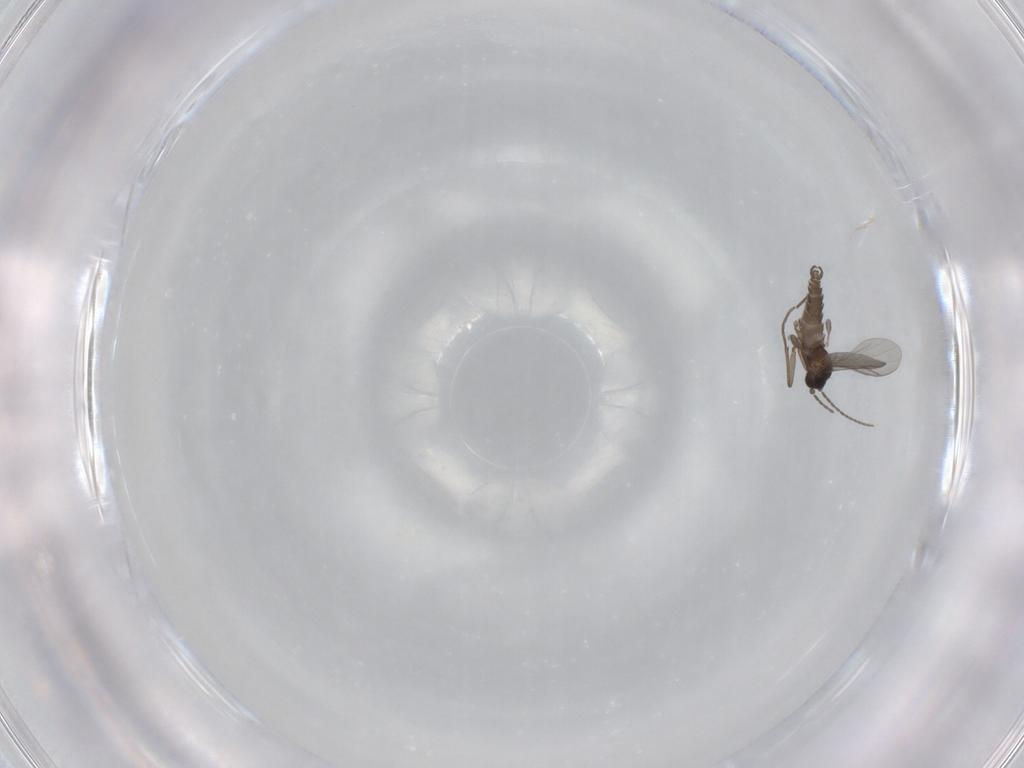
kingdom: Animalia
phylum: Arthropoda
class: Insecta
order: Diptera
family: Sciaridae
